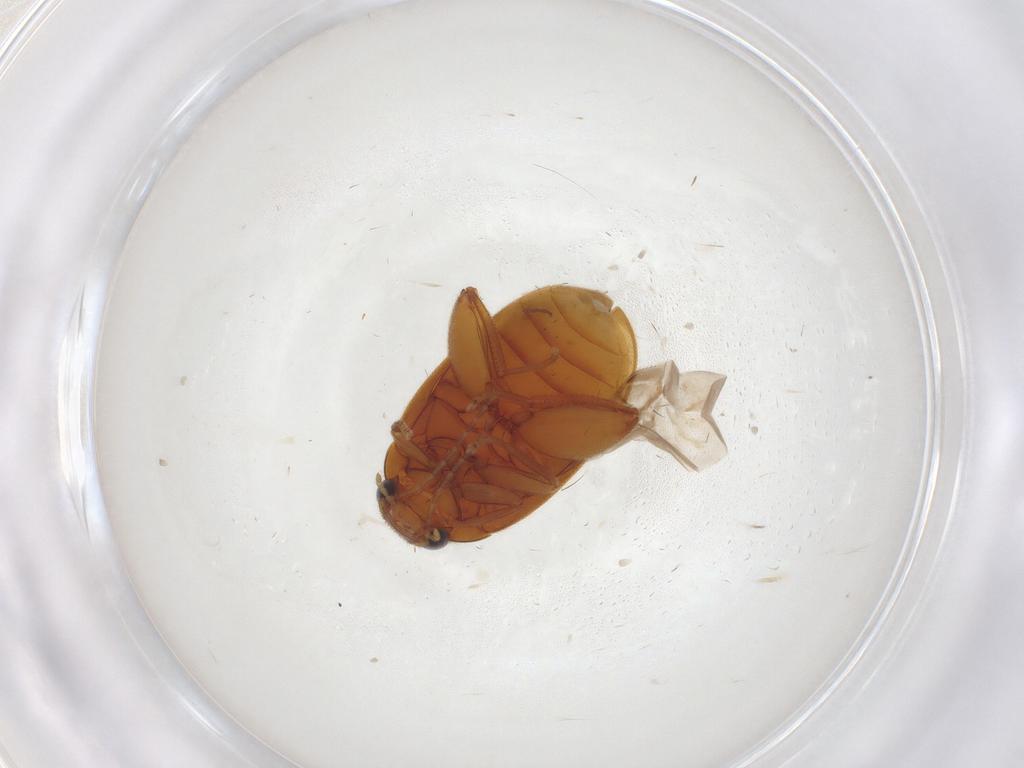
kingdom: Animalia
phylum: Arthropoda
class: Insecta
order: Coleoptera
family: Scirtidae
